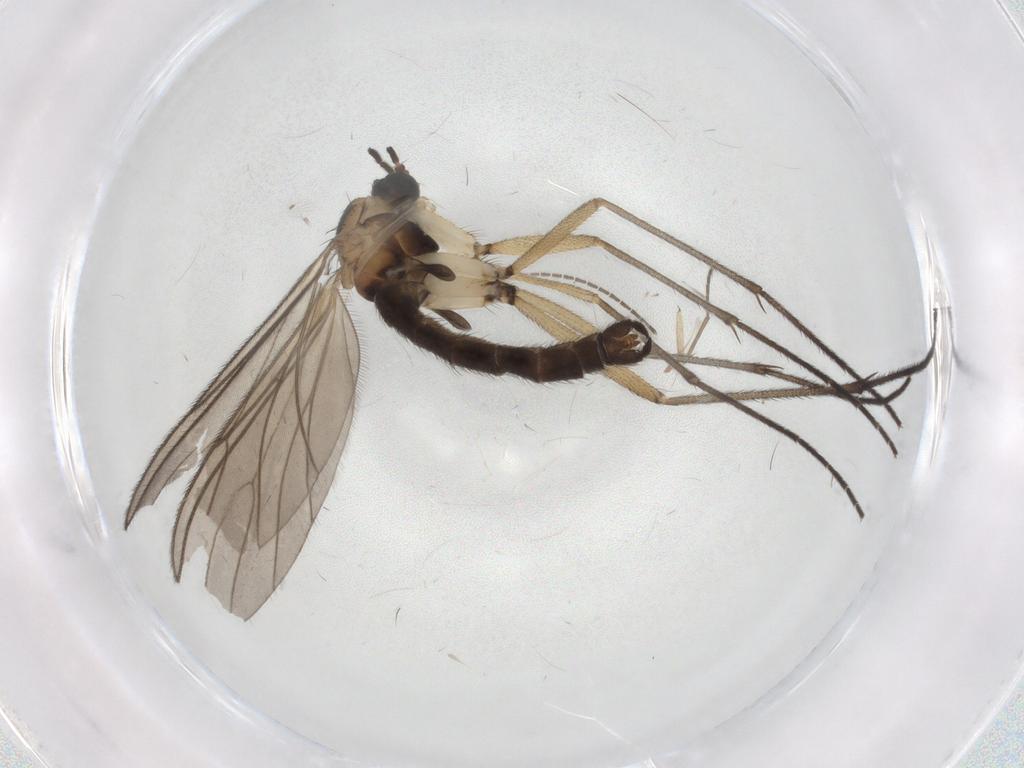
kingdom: Animalia
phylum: Arthropoda
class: Insecta
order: Diptera
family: Sciaridae
